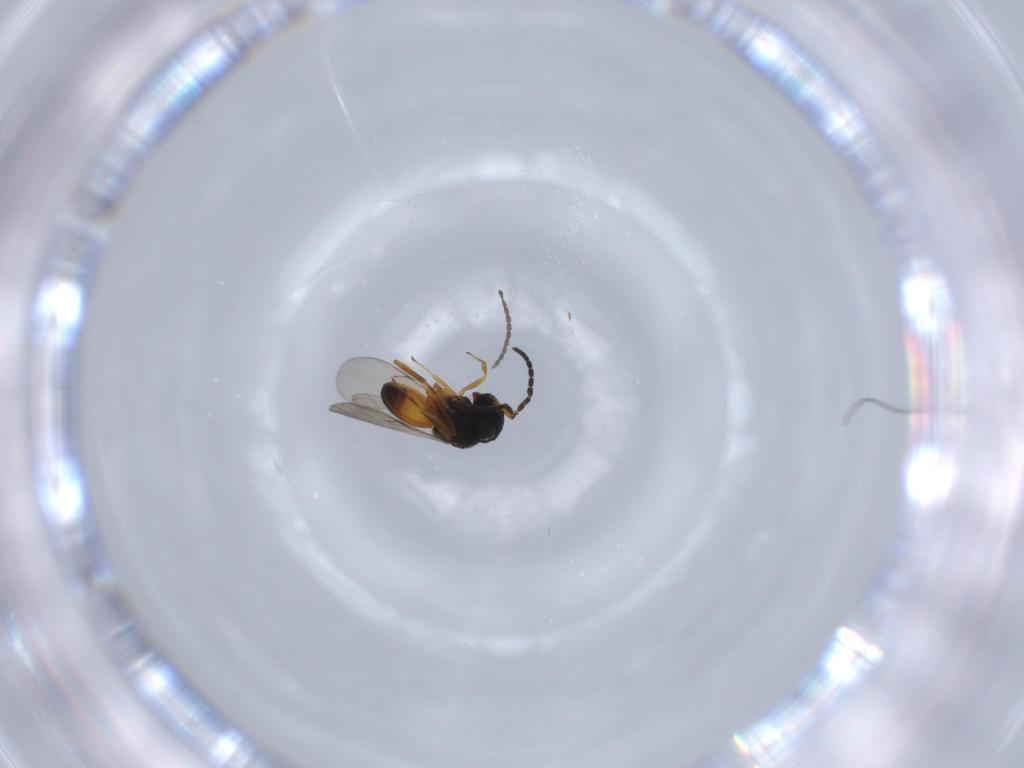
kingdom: Animalia
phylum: Arthropoda
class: Insecta
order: Hymenoptera
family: Scelionidae
